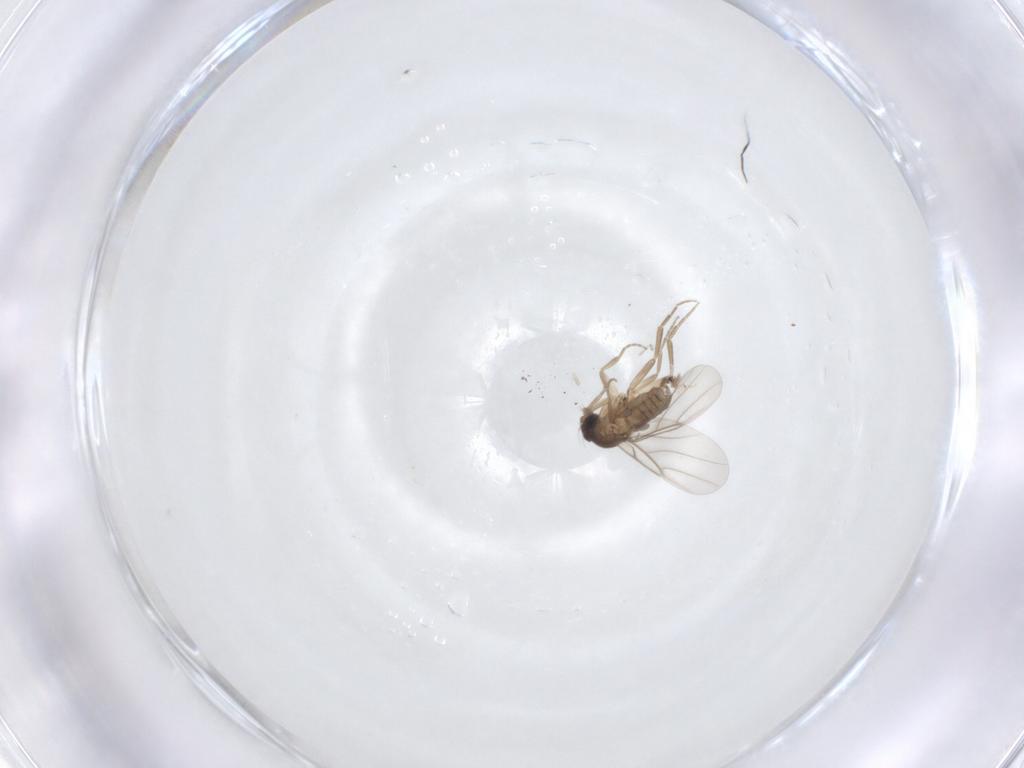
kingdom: Animalia
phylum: Arthropoda
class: Insecta
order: Diptera
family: Phoridae
